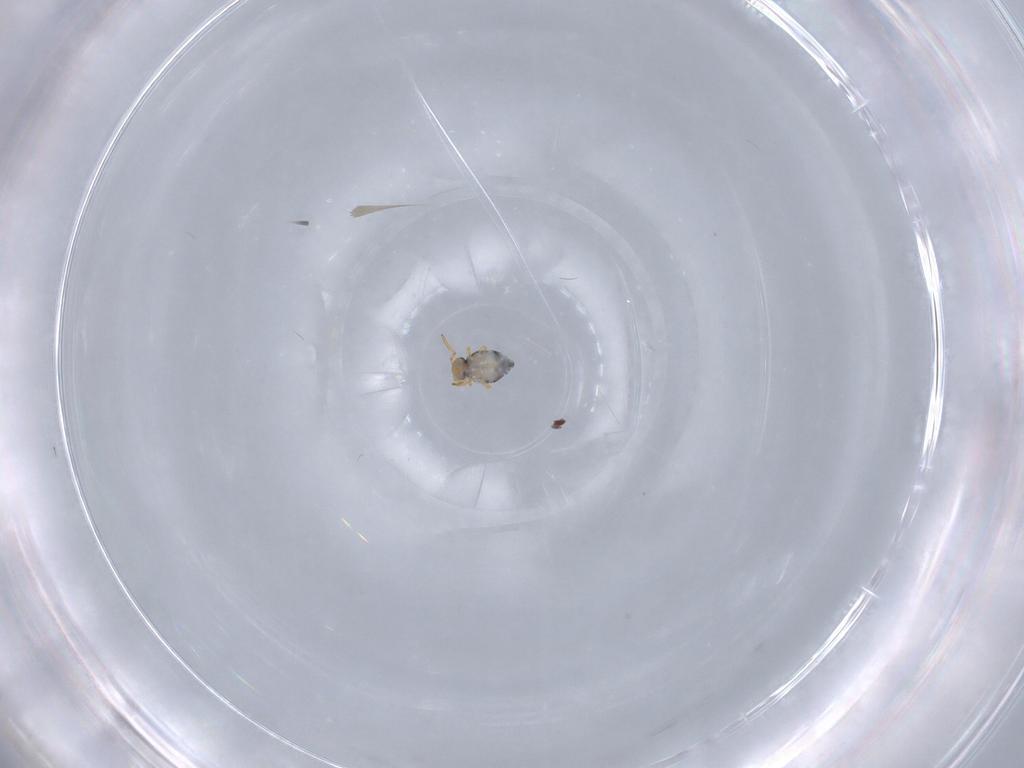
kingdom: Animalia
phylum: Arthropoda
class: Collembola
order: Symphypleona
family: Katiannidae
